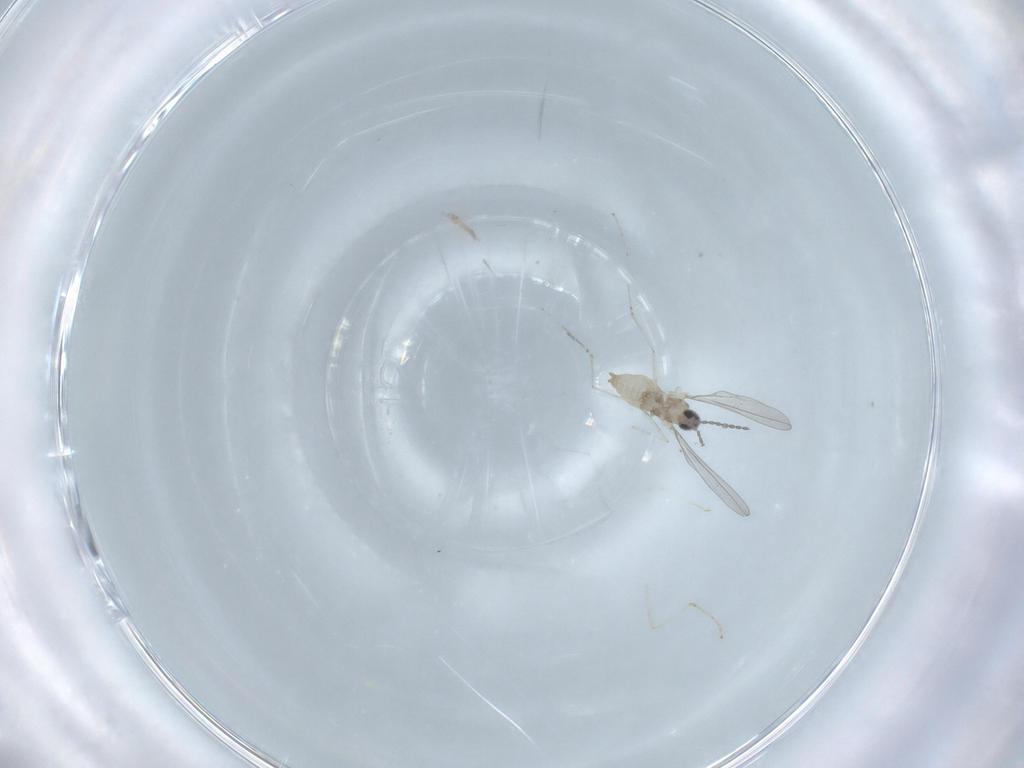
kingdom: Animalia
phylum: Arthropoda
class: Insecta
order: Diptera
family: Cecidomyiidae
